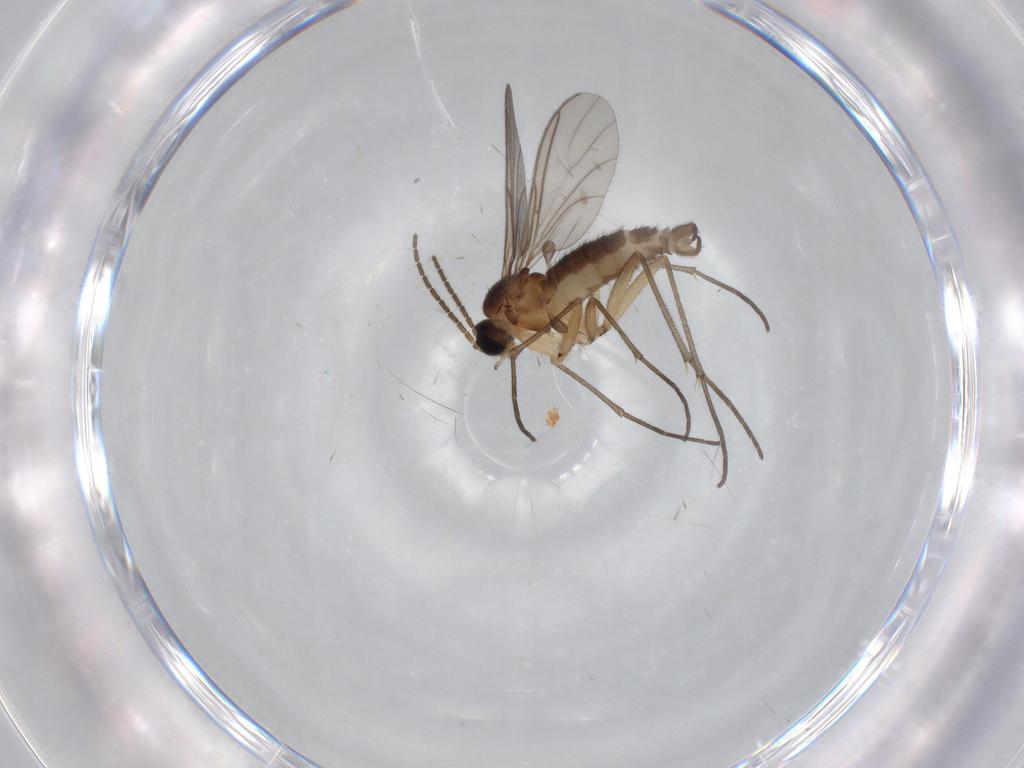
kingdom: Animalia
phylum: Arthropoda
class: Insecta
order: Diptera
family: Sciaridae
